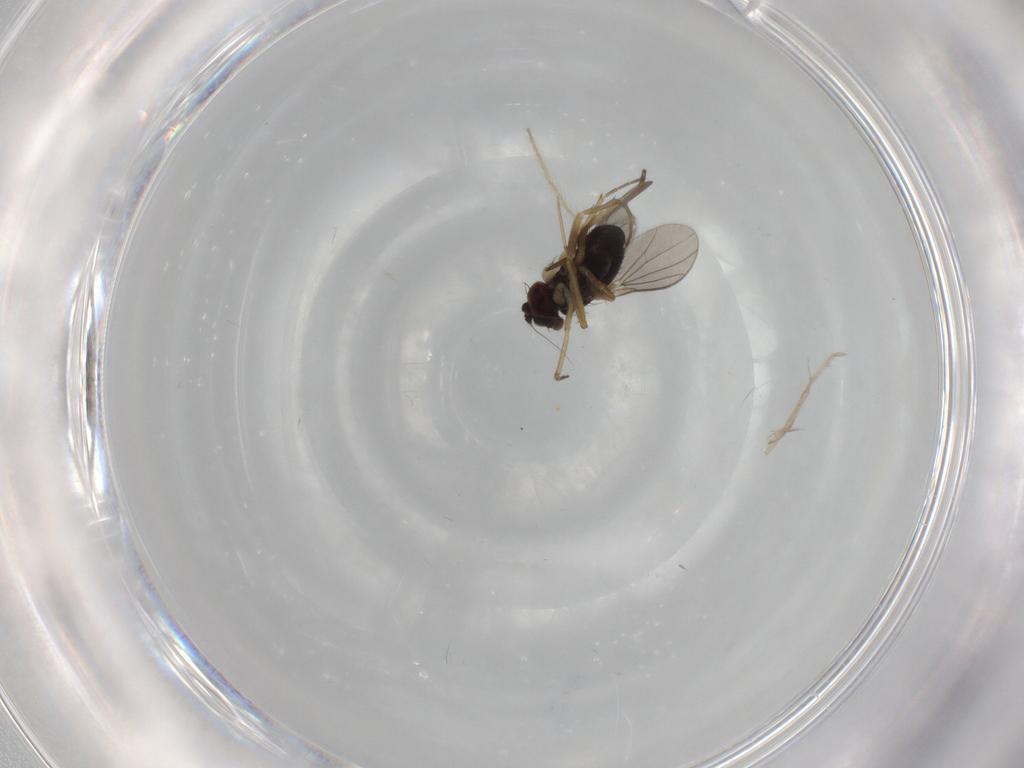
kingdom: Animalia
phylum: Arthropoda
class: Insecta
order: Diptera
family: Dolichopodidae
